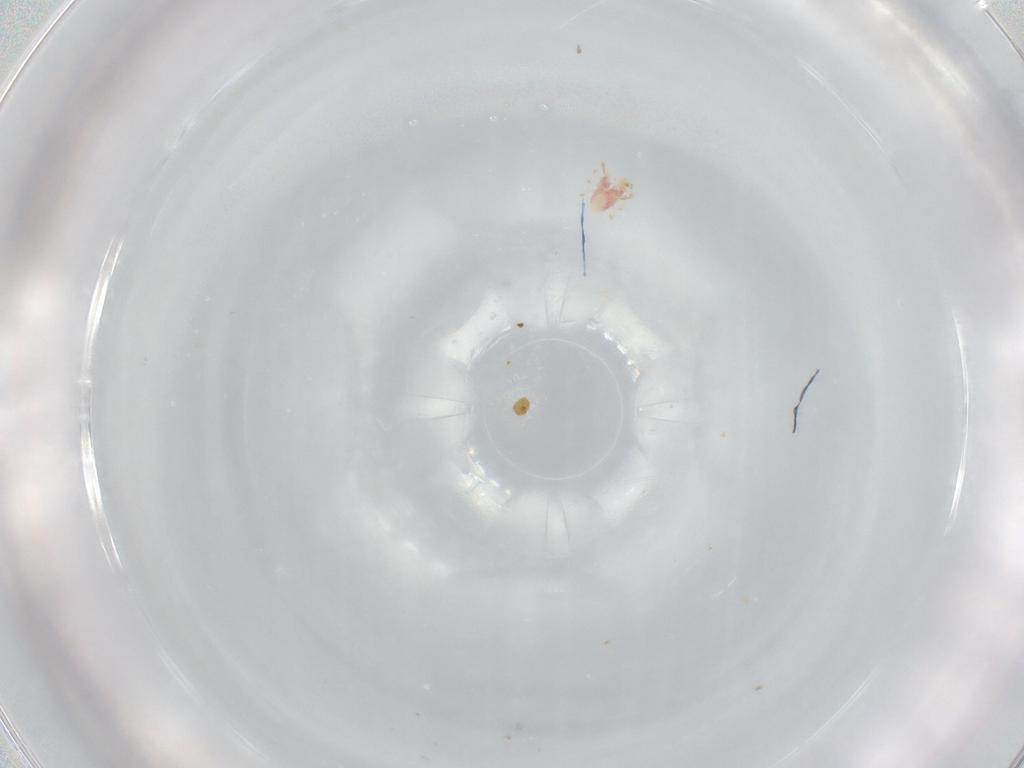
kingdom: Animalia
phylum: Arthropoda
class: Arachnida
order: Mesostigmata
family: Phytoseiidae
